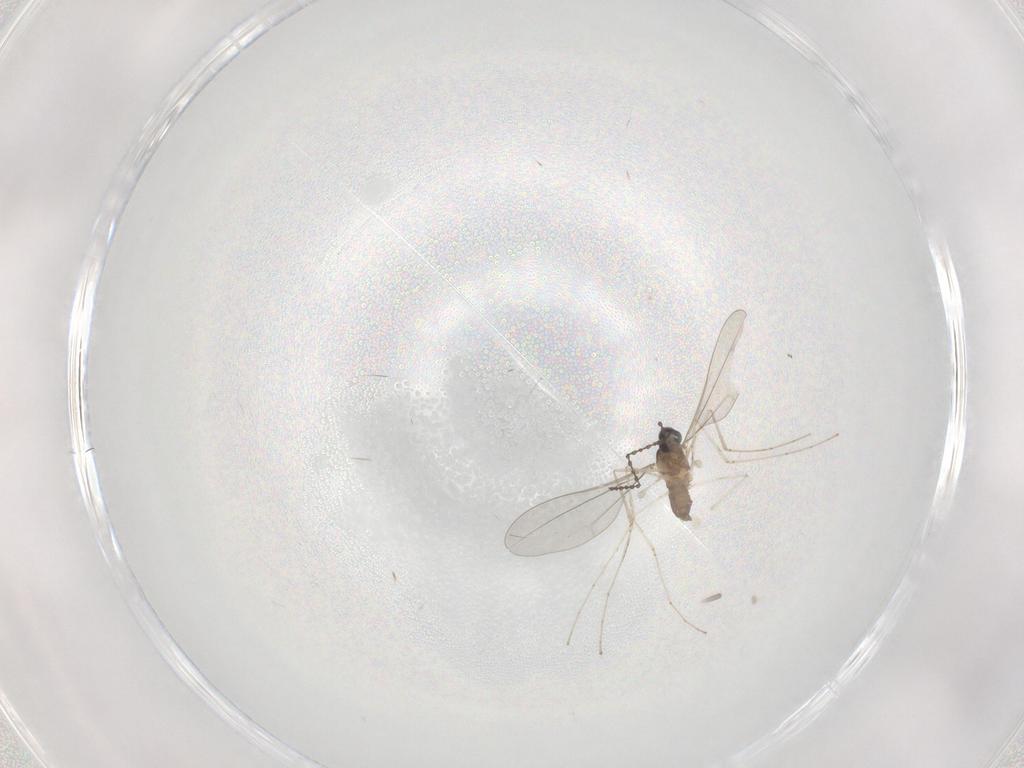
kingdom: Animalia
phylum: Arthropoda
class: Insecta
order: Diptera
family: Cecidomyiidae
